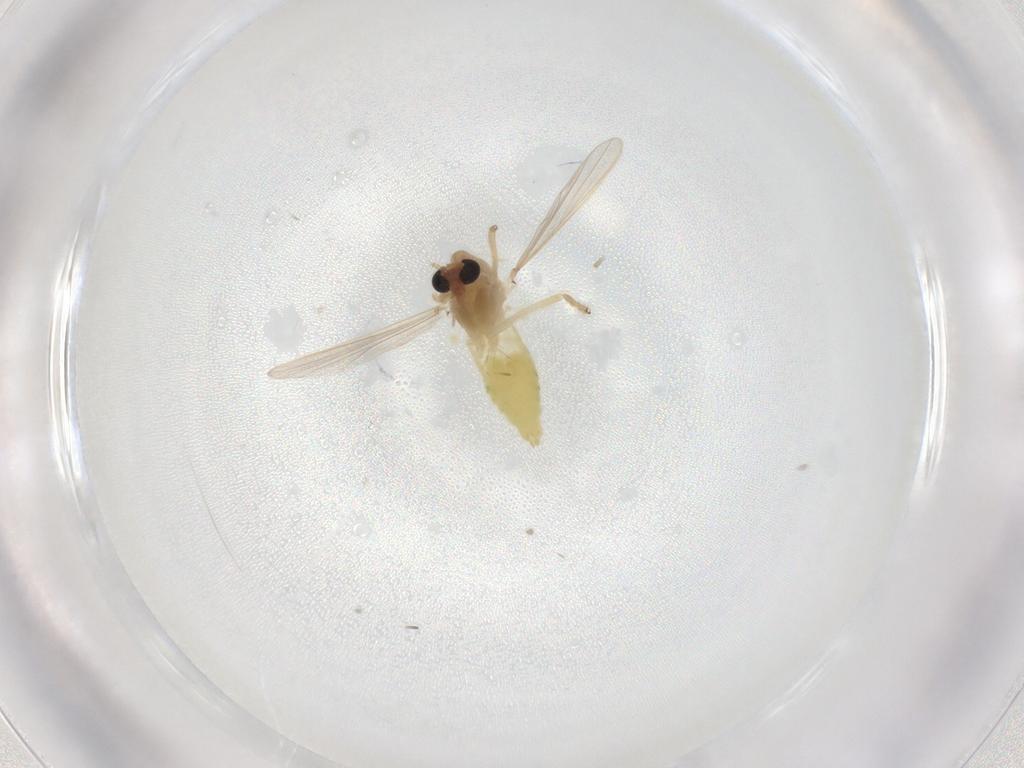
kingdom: Animalia
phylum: Arthropoda
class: Insecta
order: Diptera
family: Chironomidae
